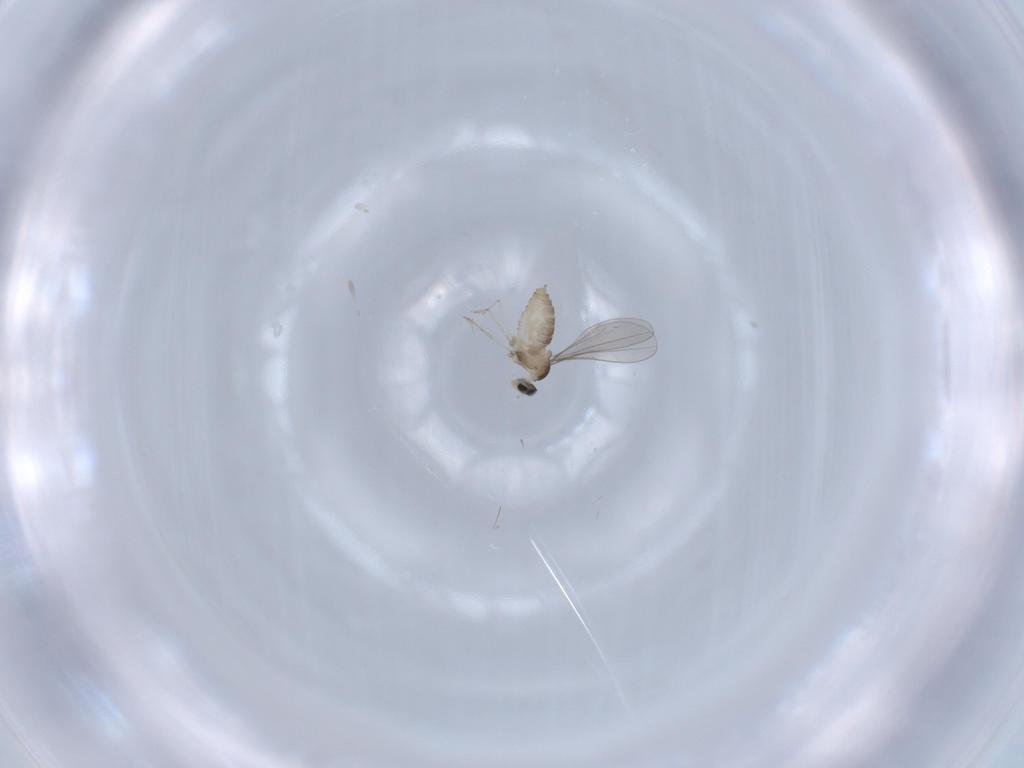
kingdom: Animalia
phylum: Arthropoda
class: Insecta
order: Diptera
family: Cecidomyiidae
